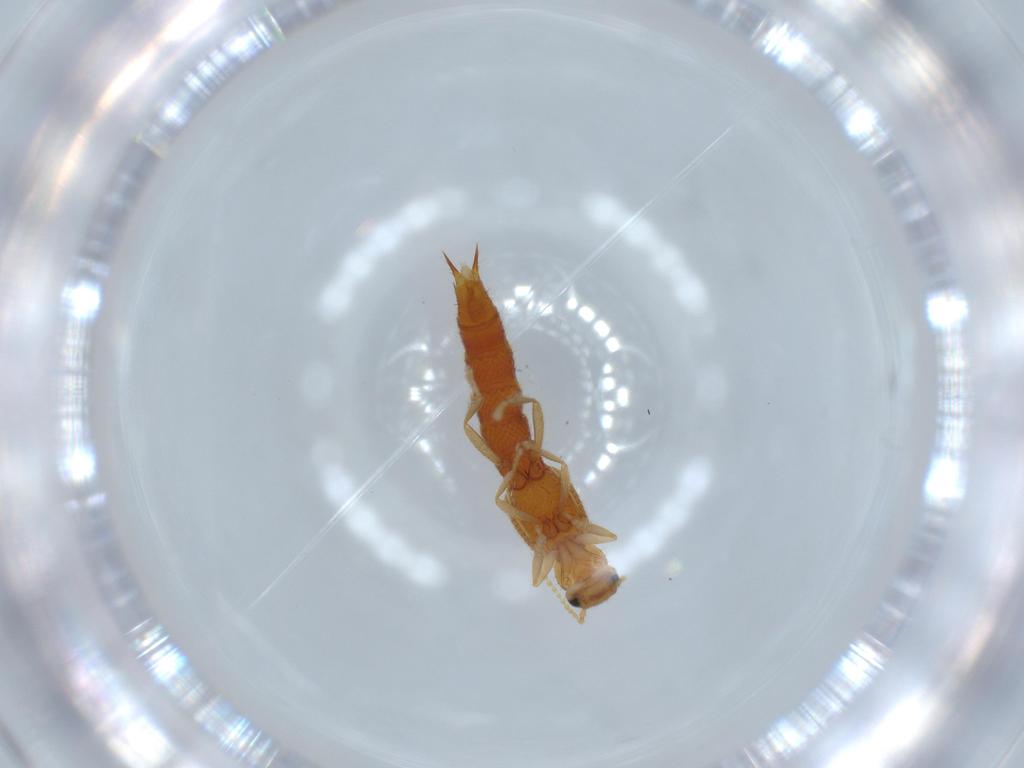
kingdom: Animalia
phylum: Arthropoda
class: Insecta
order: Coleoptera
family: Staphylinidae
